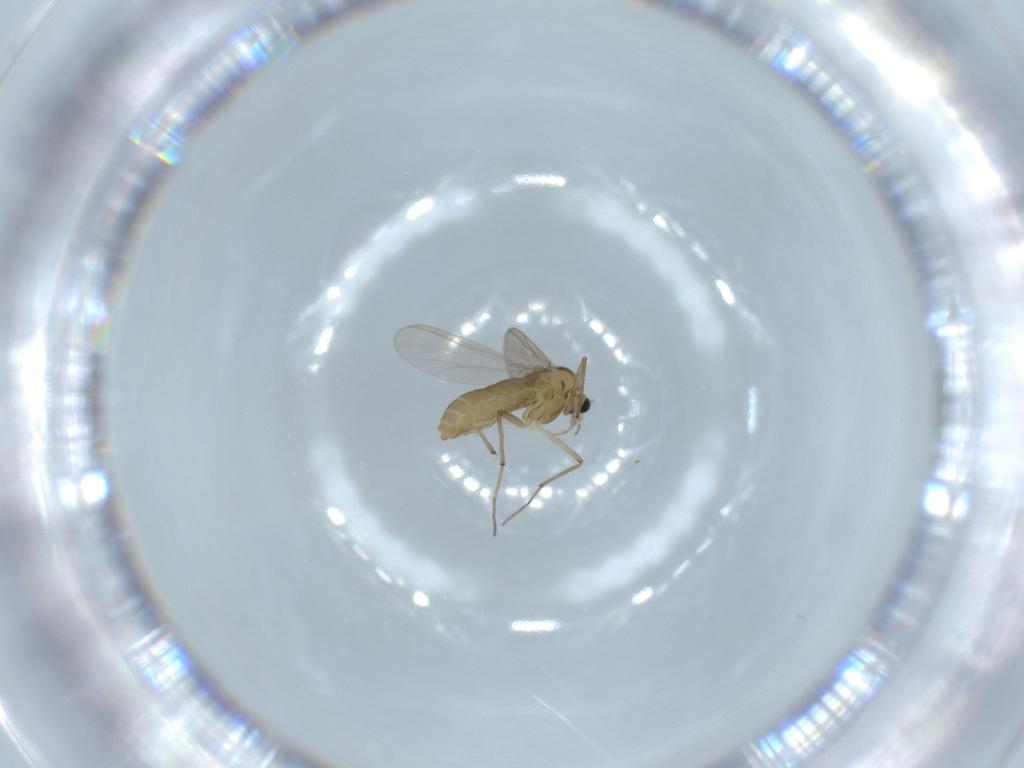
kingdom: Animalia
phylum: Arthropoda
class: Insecta
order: Diptera
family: Chironomidae
